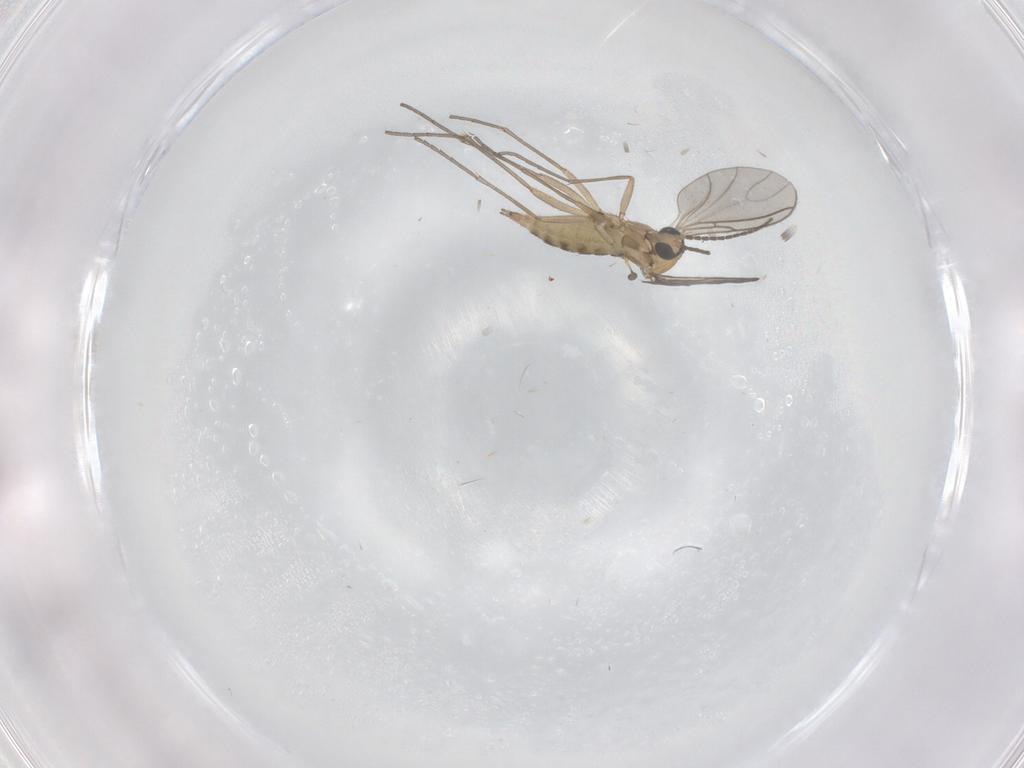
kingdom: Animalia
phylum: Arthropoda
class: Insecta
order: Diptera
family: Sciaridae
